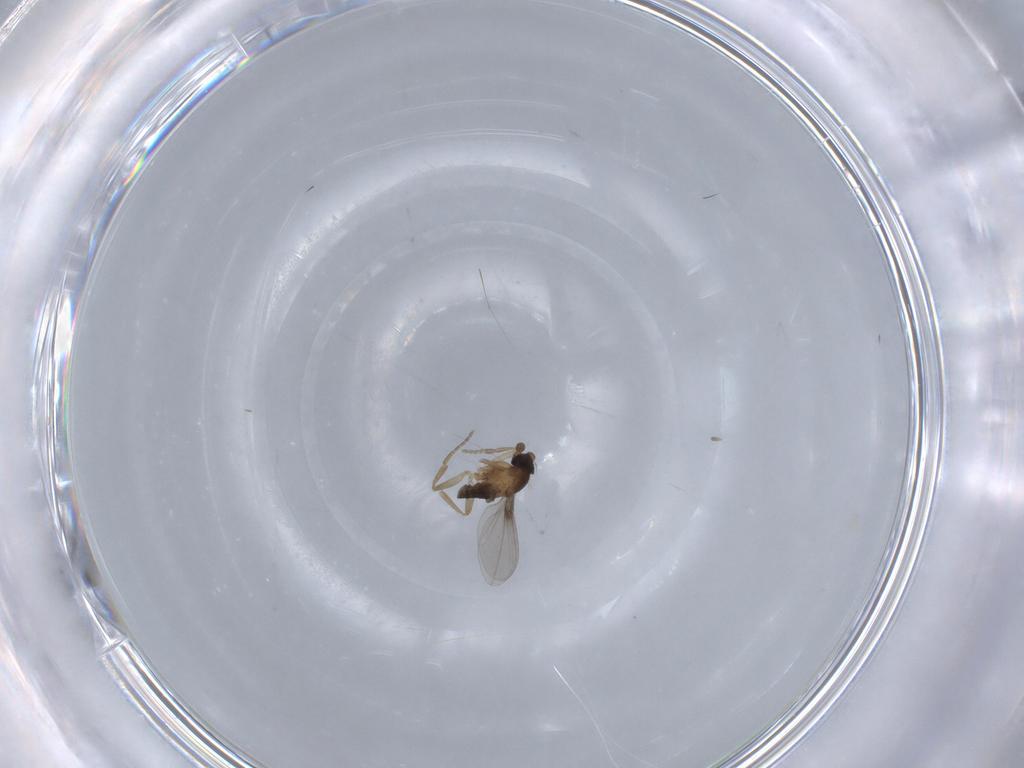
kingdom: Animalia
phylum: Arthropoda
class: Insecta
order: Diptera
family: Phoridae
